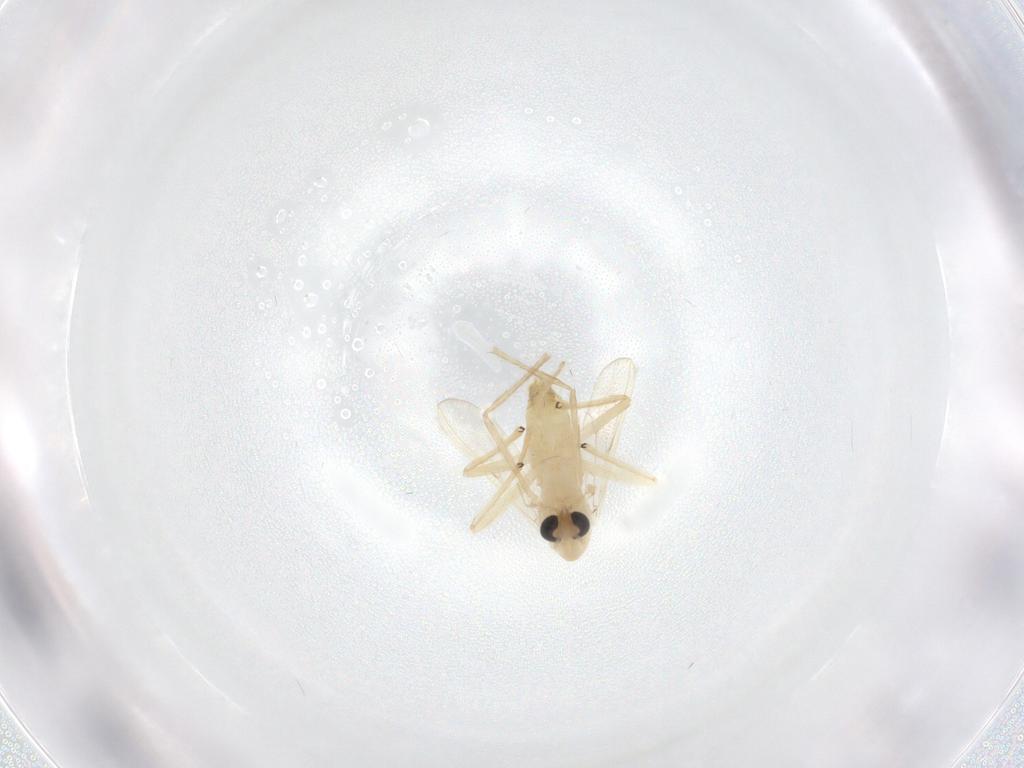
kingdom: Animalia
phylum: Arthropoda
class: Insecta
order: Diptera
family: Chironomidae
